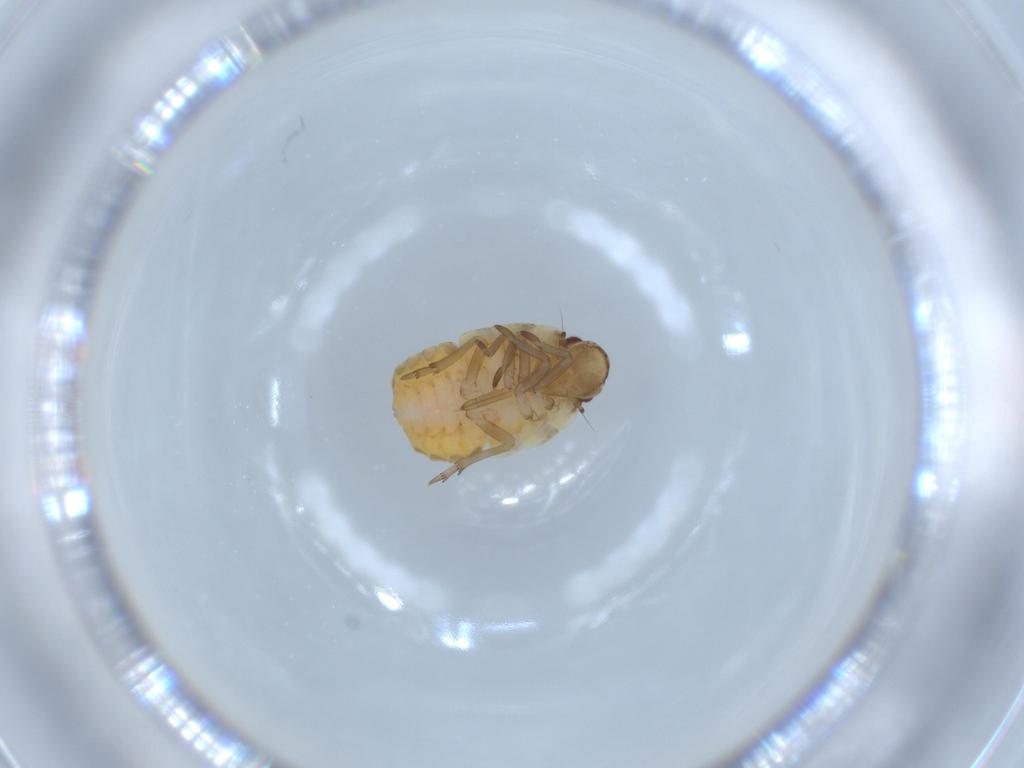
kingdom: Animalia
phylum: Arthropoda
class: Insecta
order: Hemiptera
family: Flatidae
